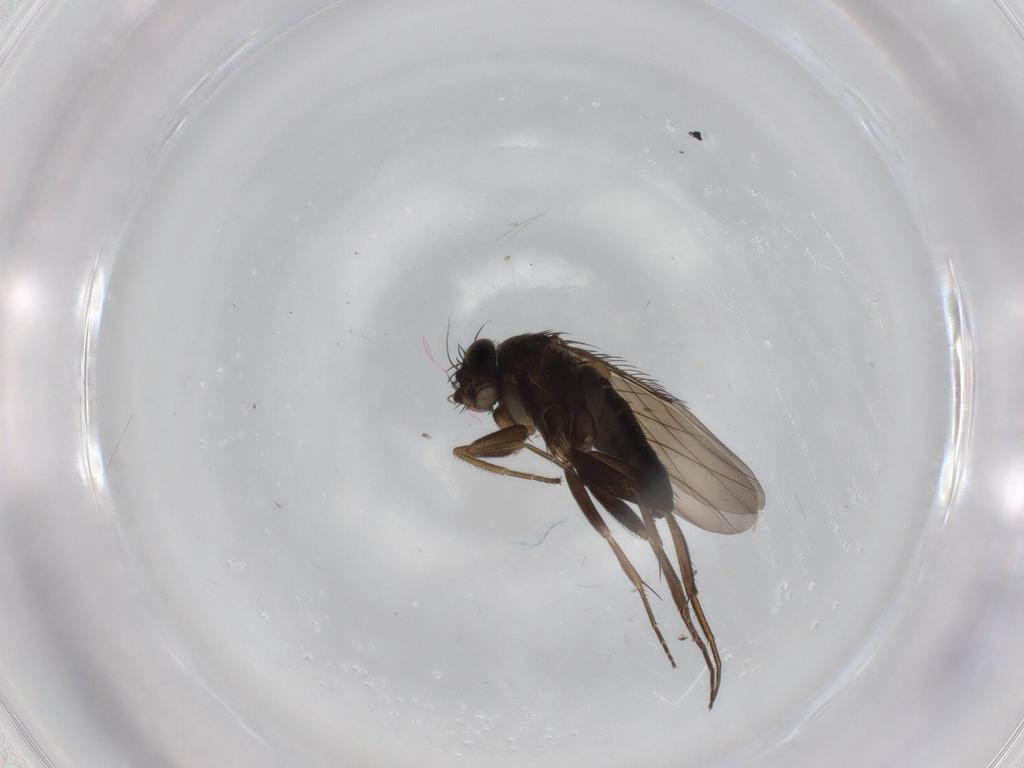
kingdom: Animalia
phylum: Arthropoda
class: Insecta
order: Diptera
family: Phoridae
